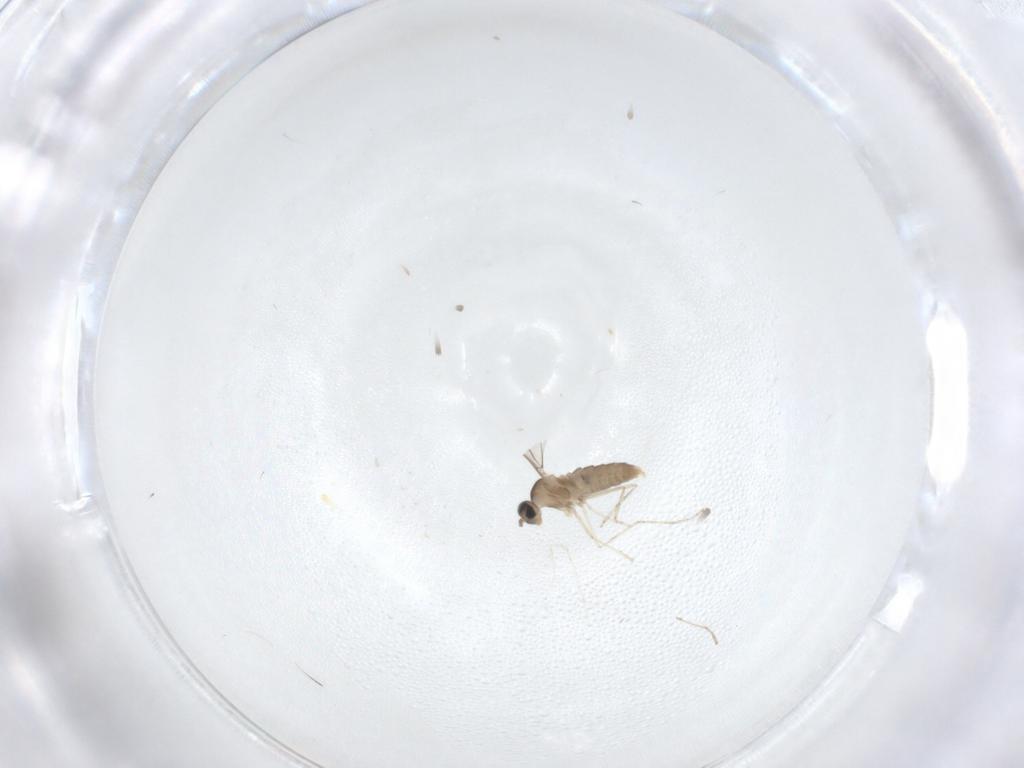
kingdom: Animalia
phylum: Arthropoda
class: Insecta
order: Diptera
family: Cecidomyiidae
